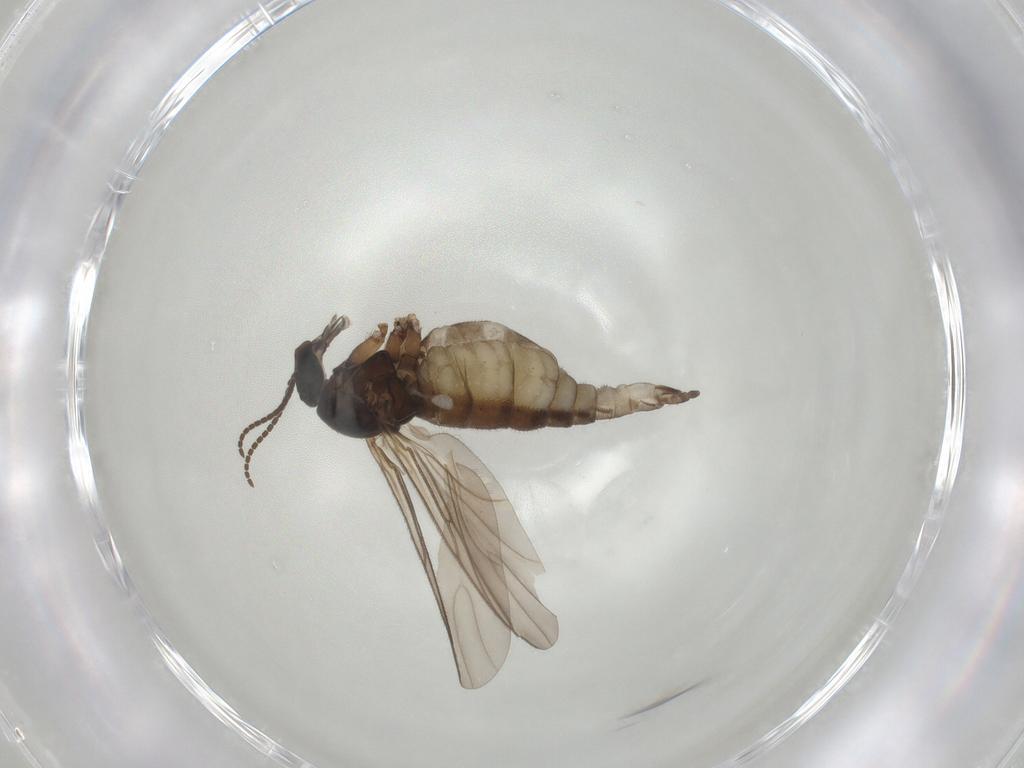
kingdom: Animalia
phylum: Arthropoda
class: Insecta
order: Diptera
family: Sciaridae
